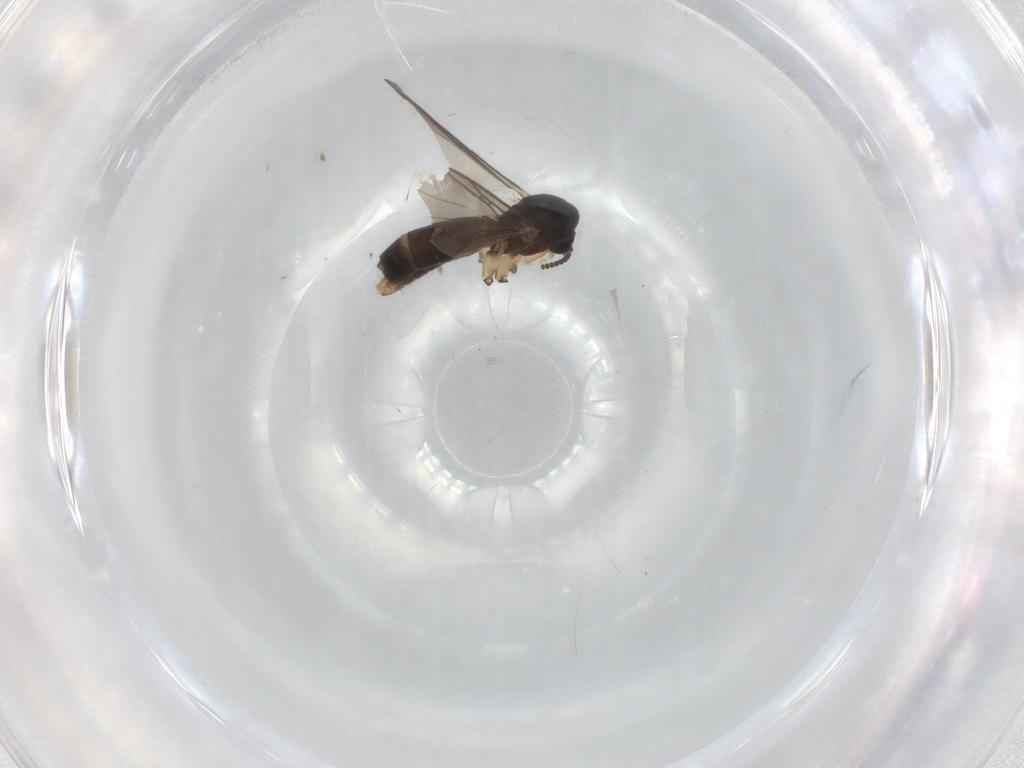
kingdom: Animalia
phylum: Arthropoda
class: Insecta
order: Diptera
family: Mycetophilidae
